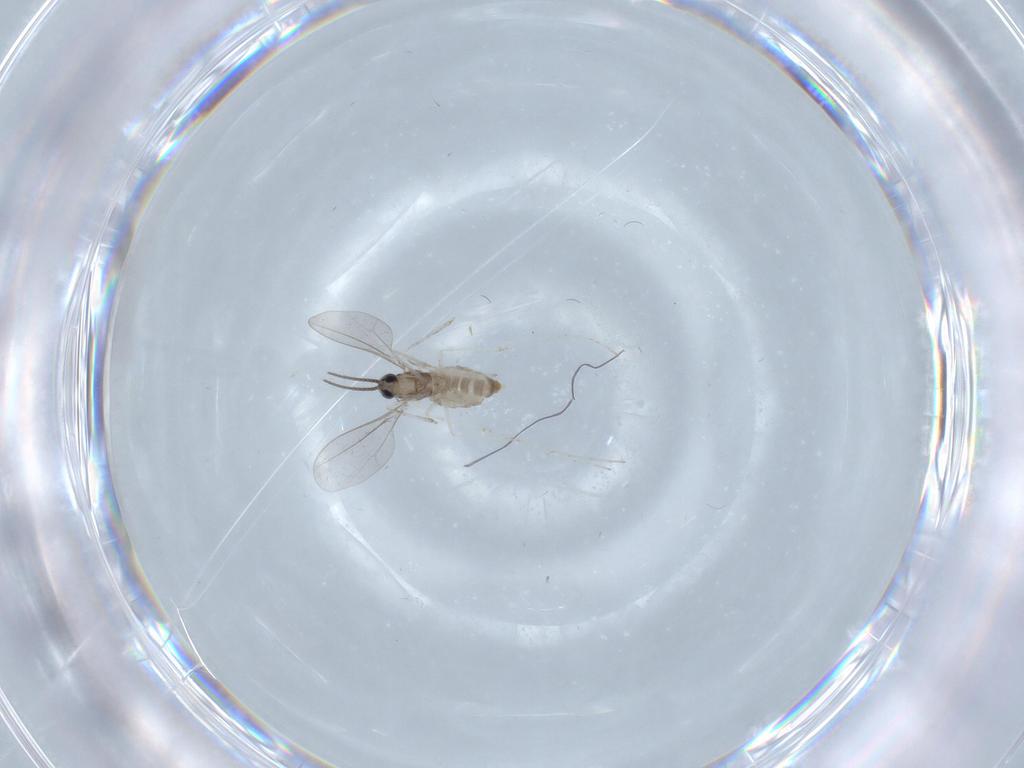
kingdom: Animalia
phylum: Arthropoda
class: Insecta
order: Diptera
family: Cecidomyiidae
